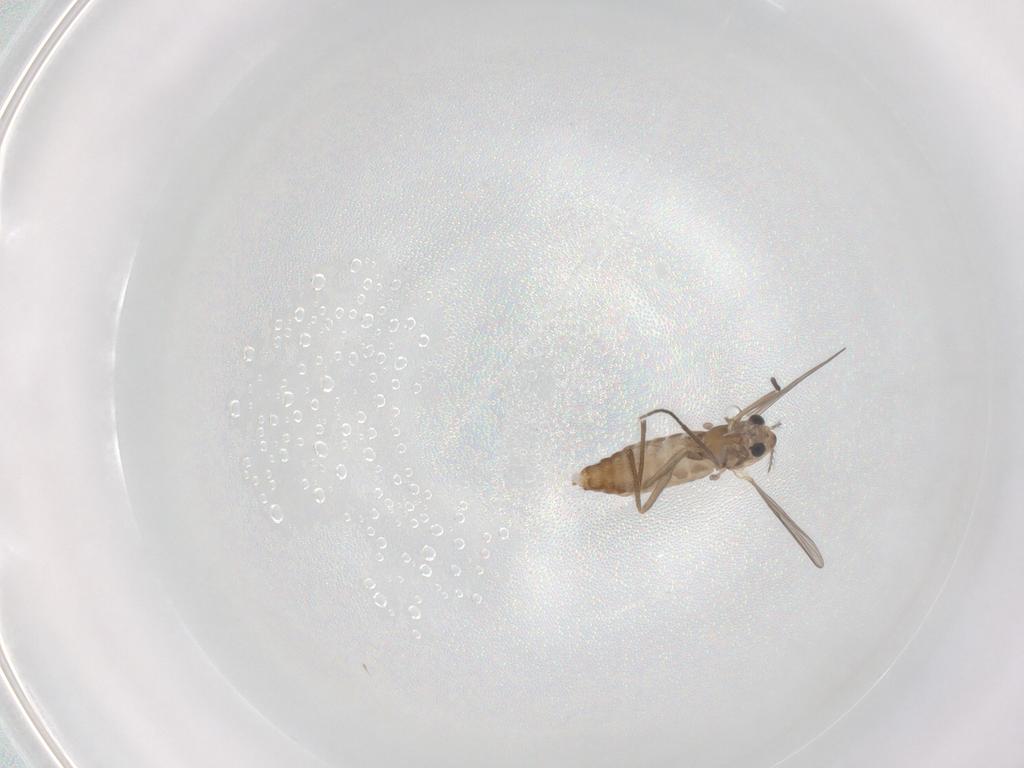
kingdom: Animalia
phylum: Arthropoda
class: Insecta
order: Diptera
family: Chironomidae
